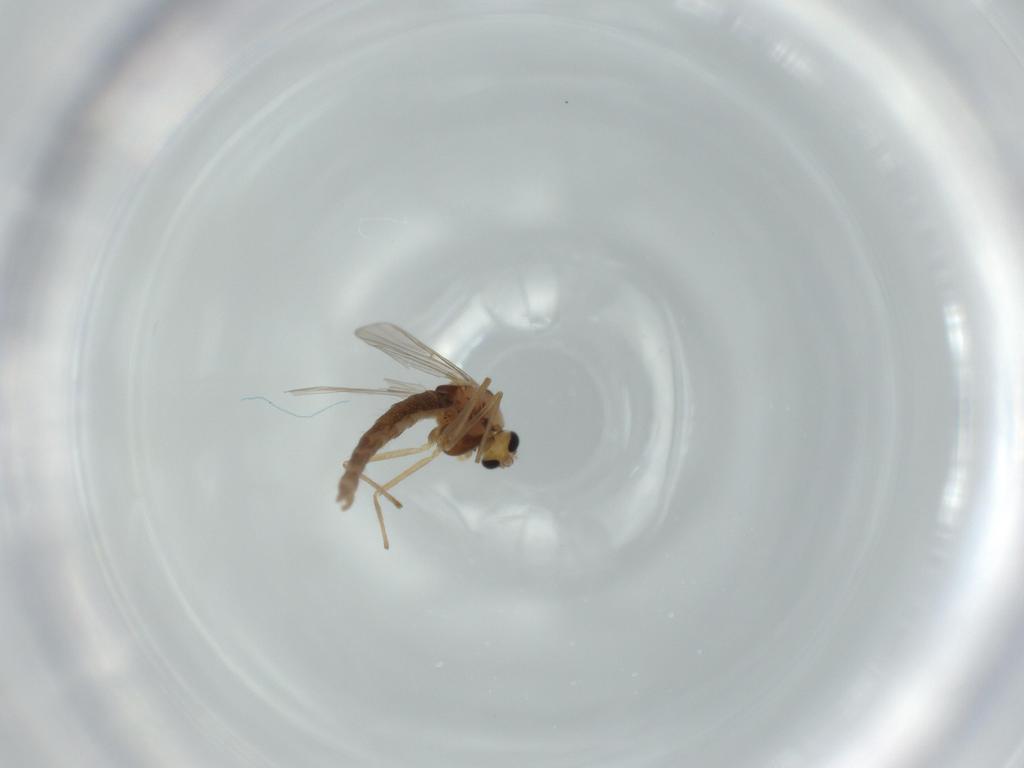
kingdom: Animalia
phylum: Arthropoda
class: Insecta
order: Diptera
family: Chironomidae
